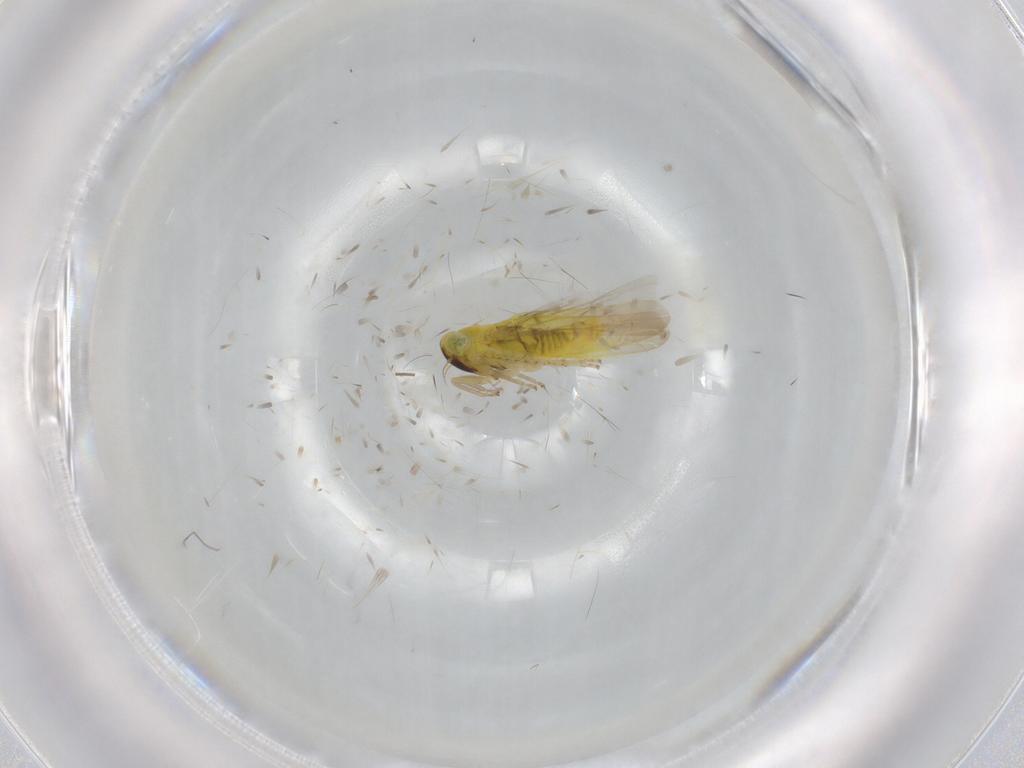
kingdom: Animalia
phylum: Arthropoda
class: Insecta
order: Hemiptera
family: Cicadellidae
